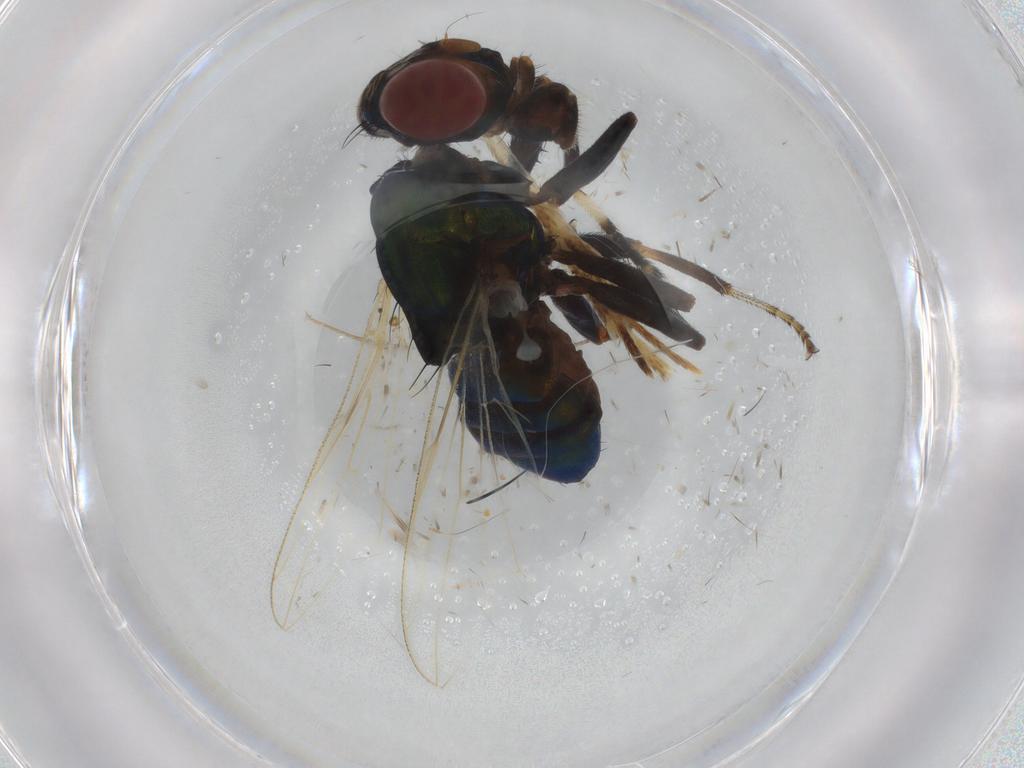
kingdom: Animalia
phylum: Arthropoda
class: Insecta
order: Diptera
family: Ulidiidae
